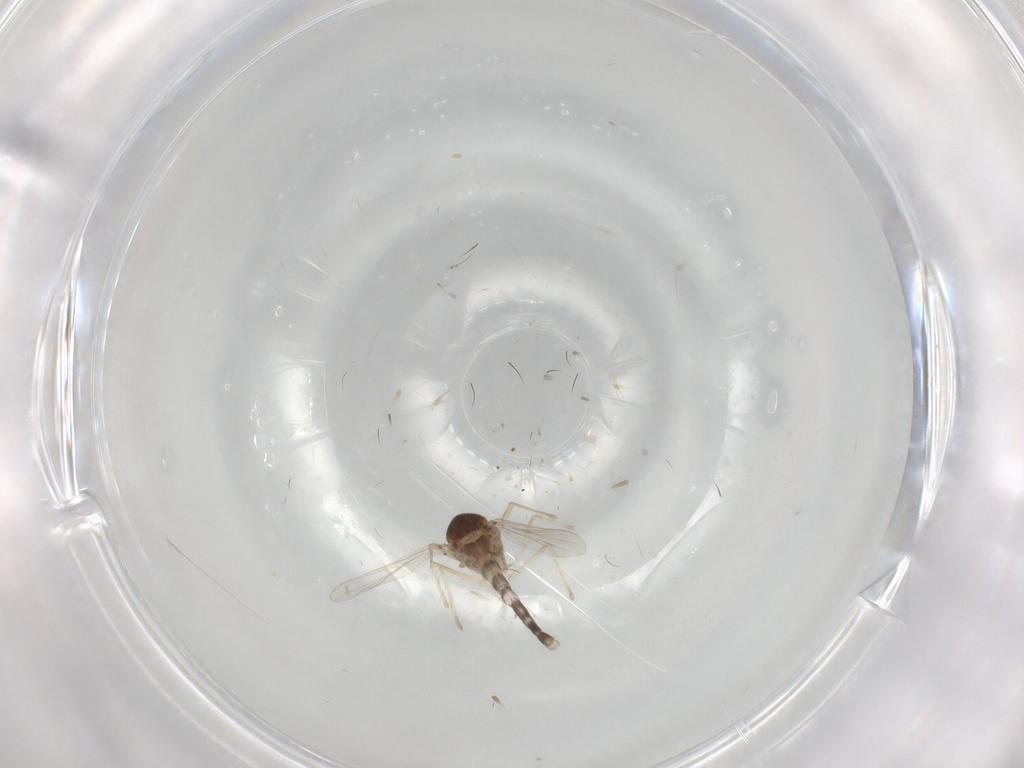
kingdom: Animalia
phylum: Arthropoda
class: Insecta
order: Diptera
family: Chironomidae
